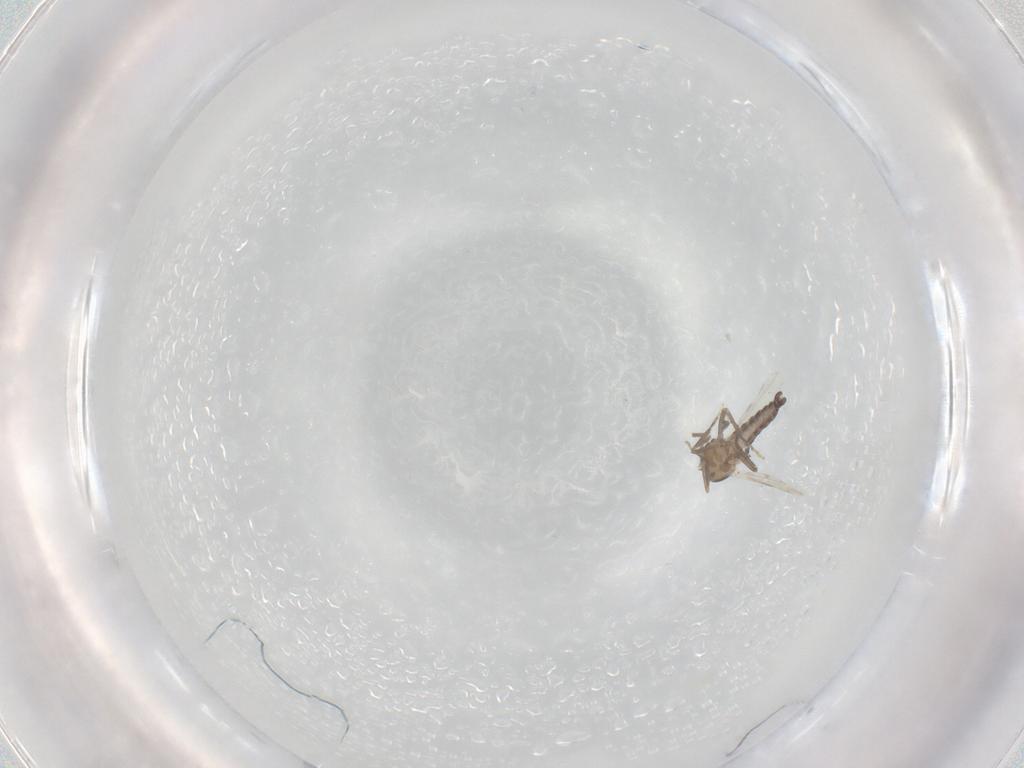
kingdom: Animalia
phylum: Arthropoda
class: Insecta
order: Diptera
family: Ceratopogonidae
